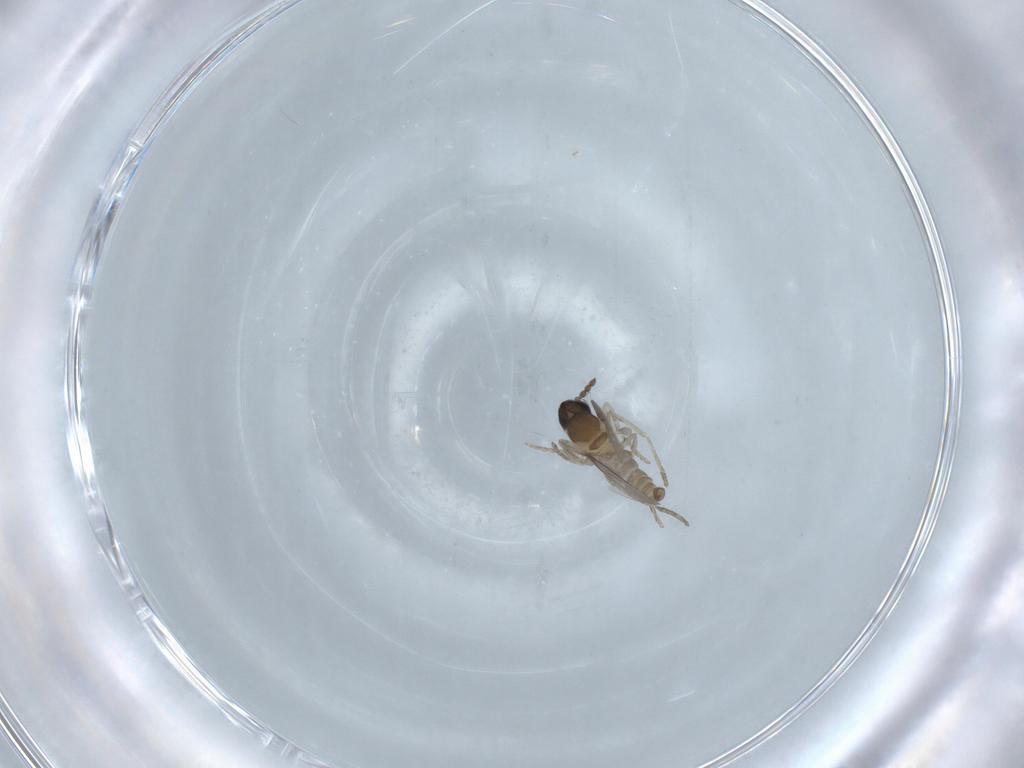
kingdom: Animalia
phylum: Arthropoda
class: Insecta
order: Diptera
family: Cecidomyiidae
